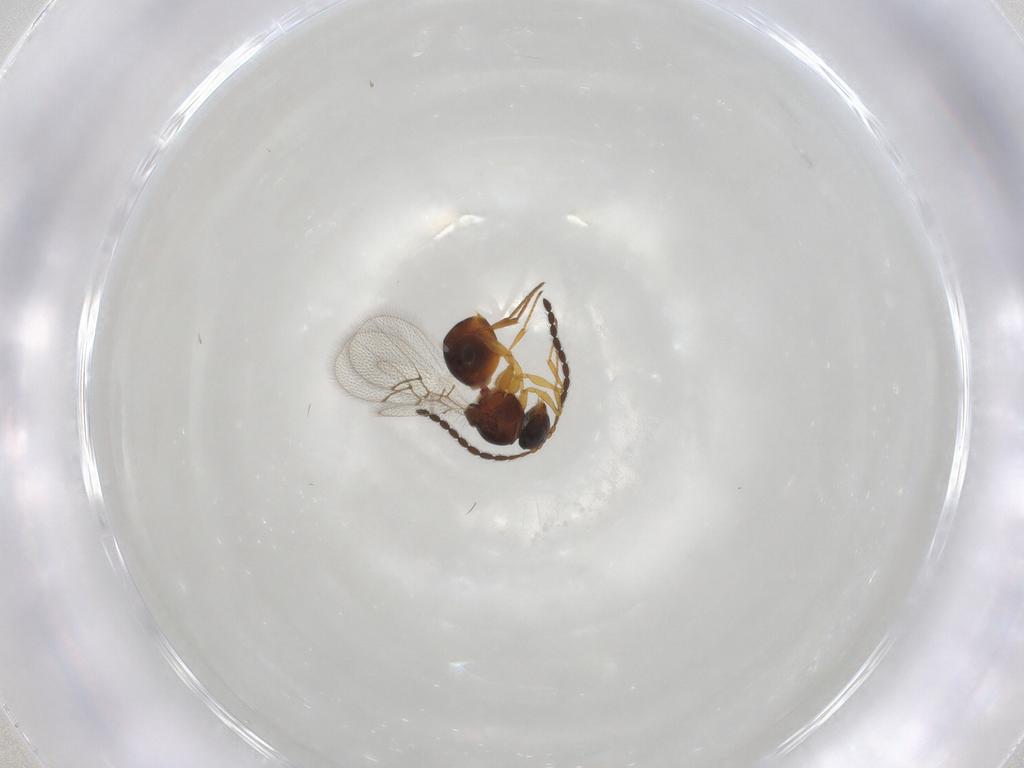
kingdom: Animalia
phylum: Arthropoda
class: Insecta
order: Hymenoptera
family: Figitidae
